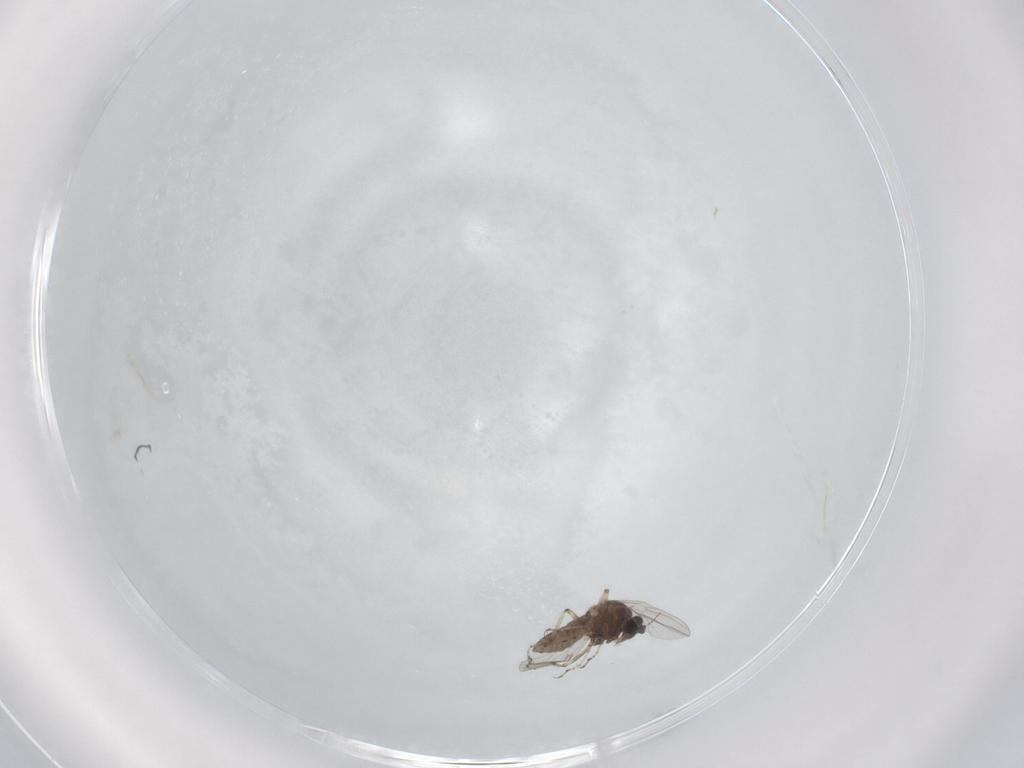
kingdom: Animalia
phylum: Arthropoda
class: Insecta
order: Diptera
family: Ceratopogonidae
